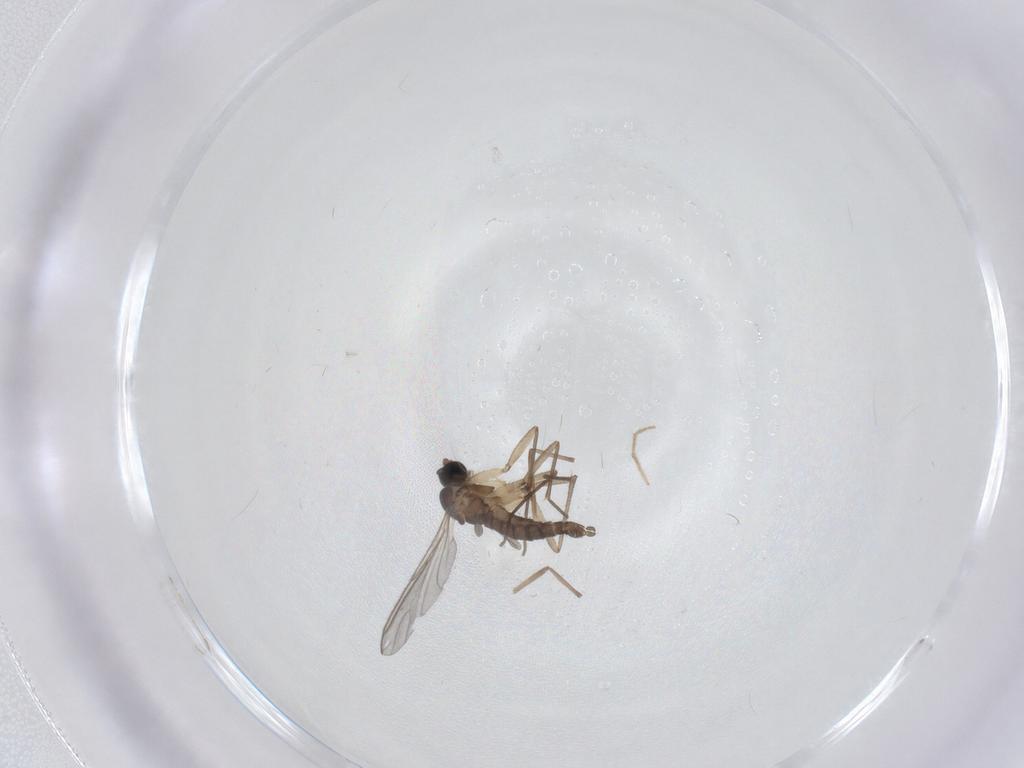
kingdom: Animalia
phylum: Arthropoda
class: Insecta
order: Diptera
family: Sciaridae
